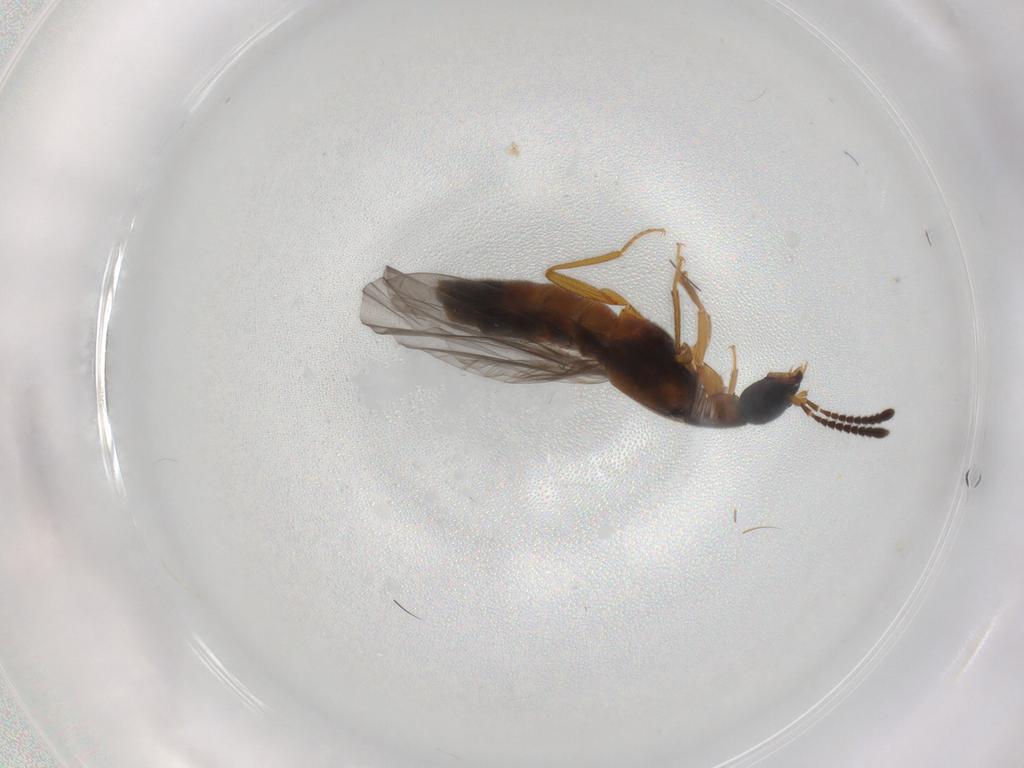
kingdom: Animalia
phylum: Arthropoda
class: Insecta
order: Coleoptera
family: Staphylinidae
